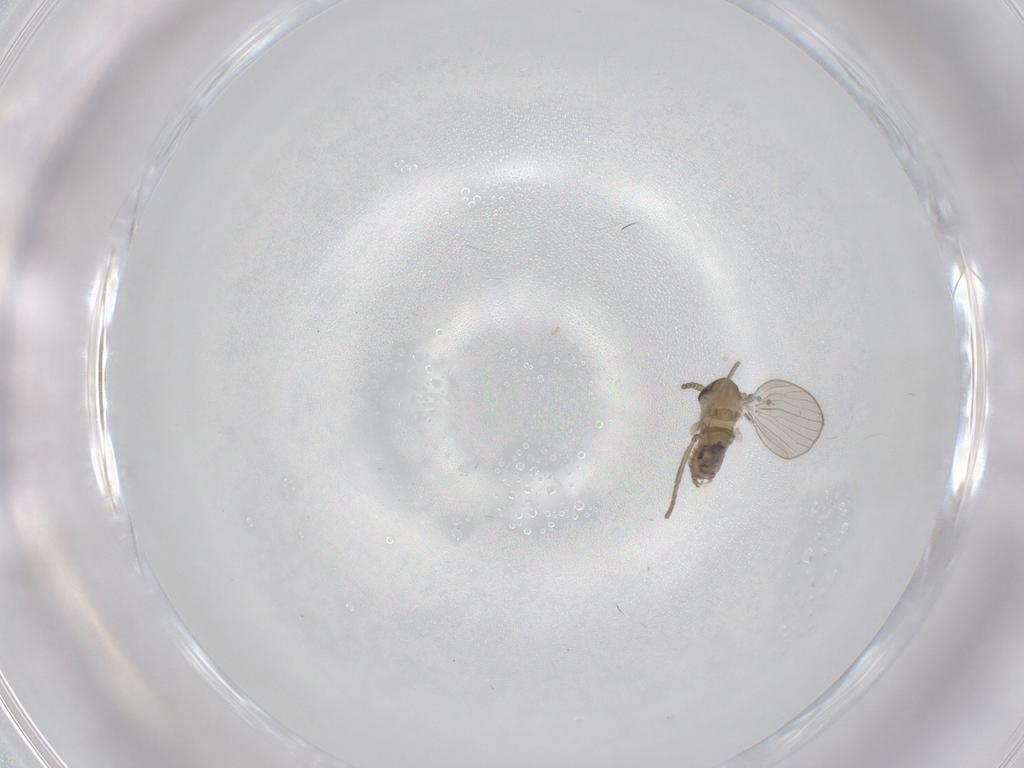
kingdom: Animalia
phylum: Arthropoda
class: Insecta
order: Diptera
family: Psychodidae
